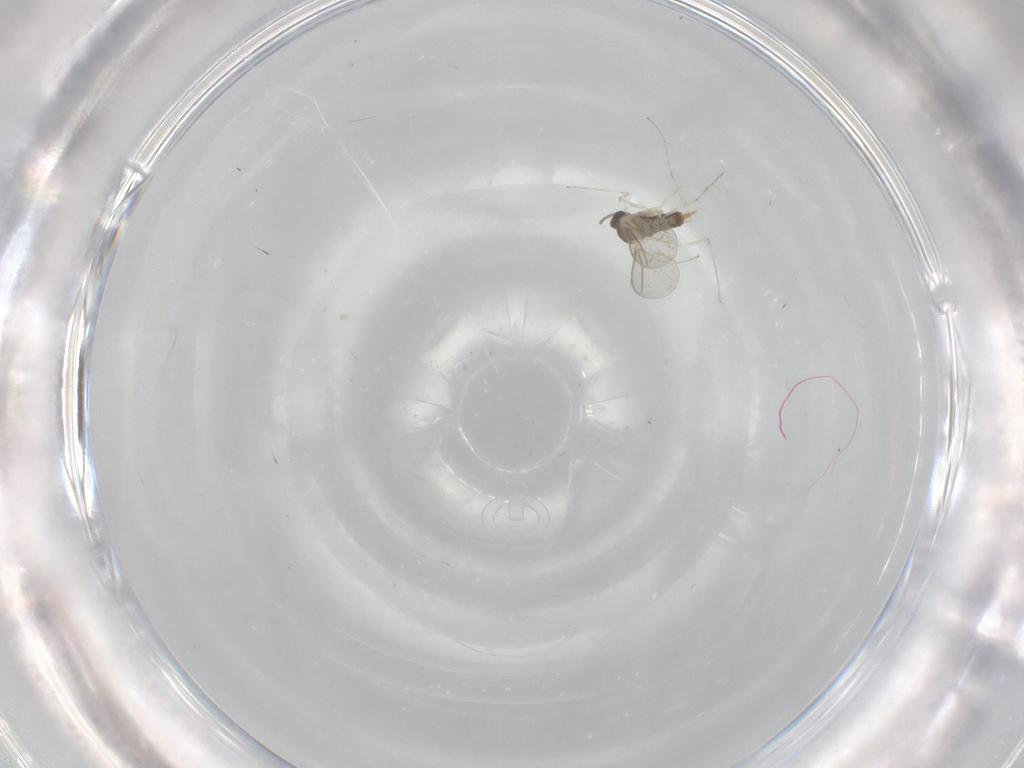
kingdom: Animalia
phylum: Arthropoda
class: Insecta
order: Diptera
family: Cecidomyiidae
